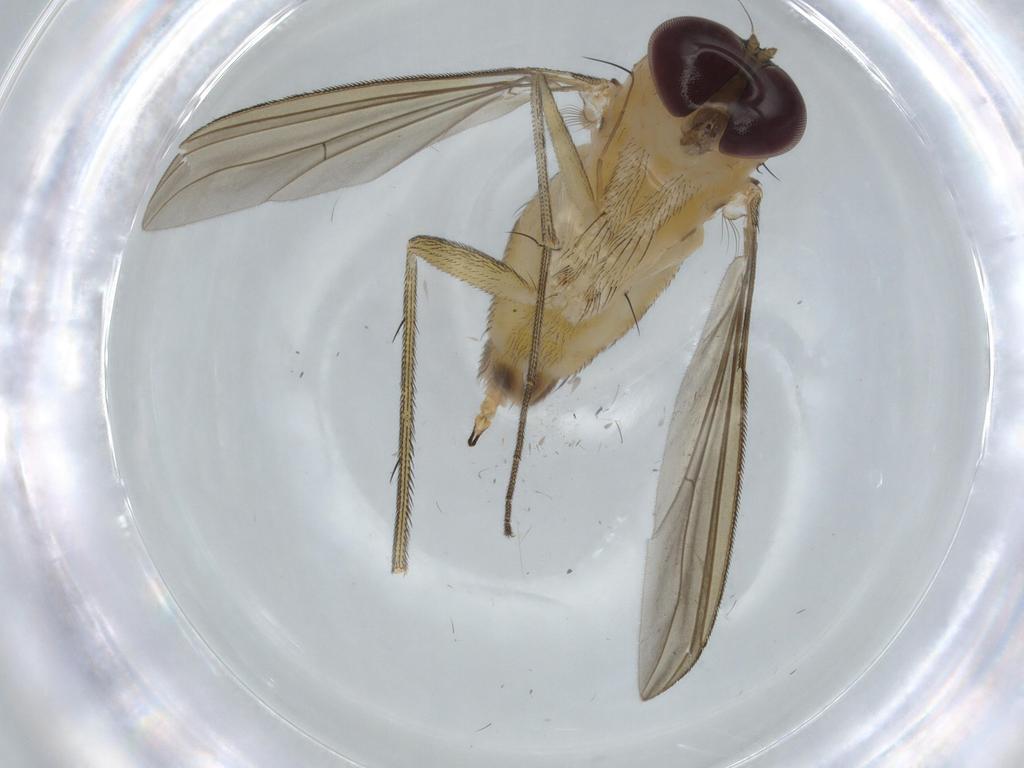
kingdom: Animalia
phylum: Arthropoda
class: Insecta
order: Diptera
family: Dolichopodidae
